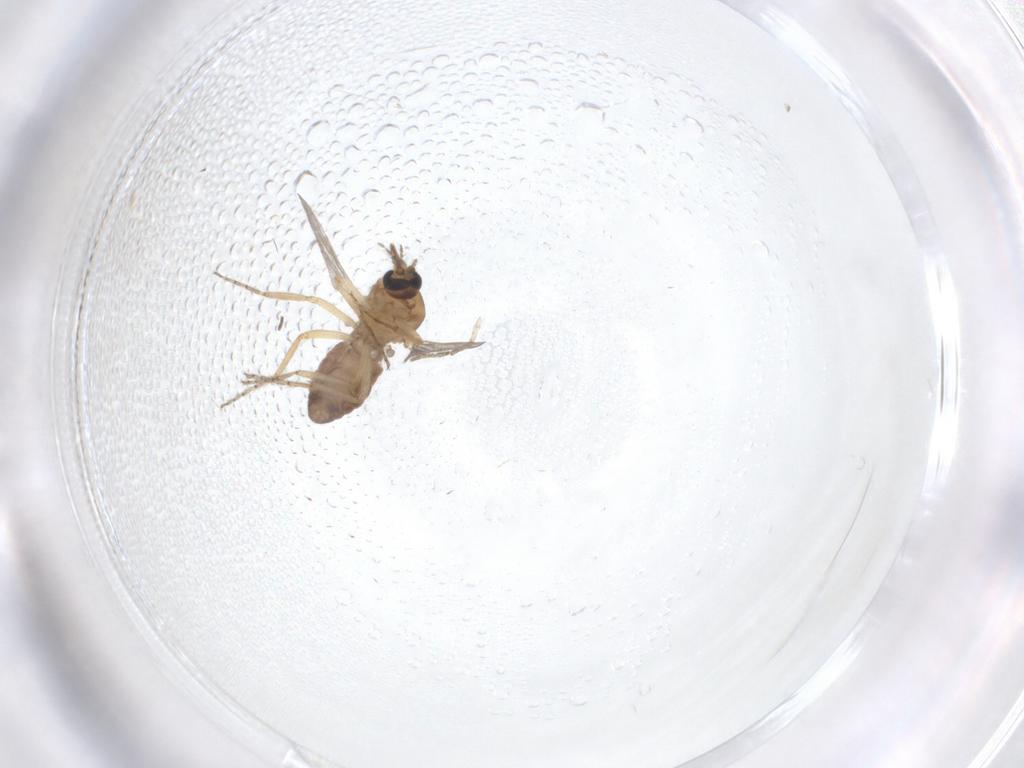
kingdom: Animalia
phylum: Arthropoda
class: Insecta
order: Diptera
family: Ceratopogonidae
